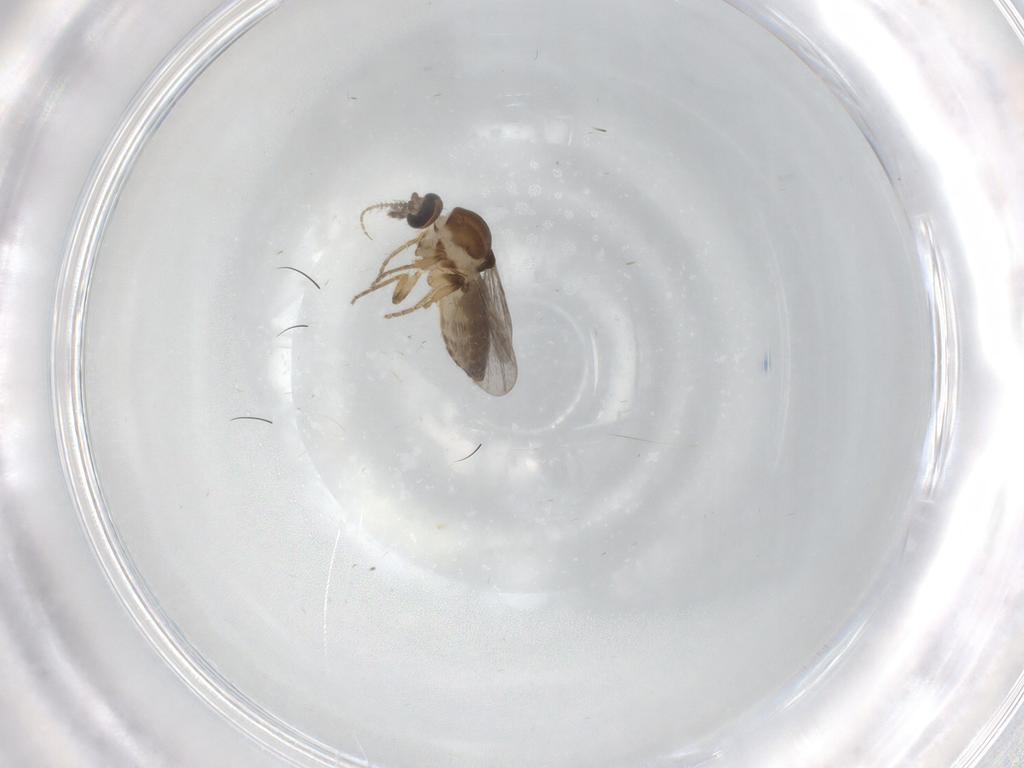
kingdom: Animalia
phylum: Arthropoda
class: Insecta
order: Diptera
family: Ceratopogonidae
